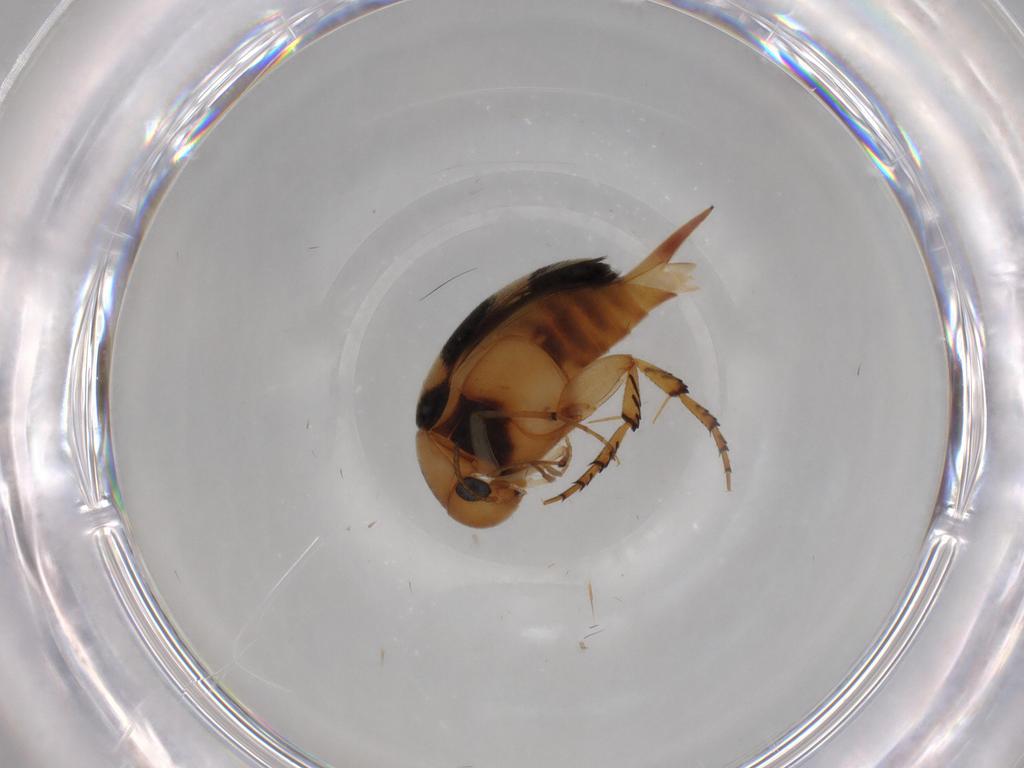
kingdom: Animalia
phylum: Arthropoda
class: Insecta
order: Coleoptera
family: Mordellidae
